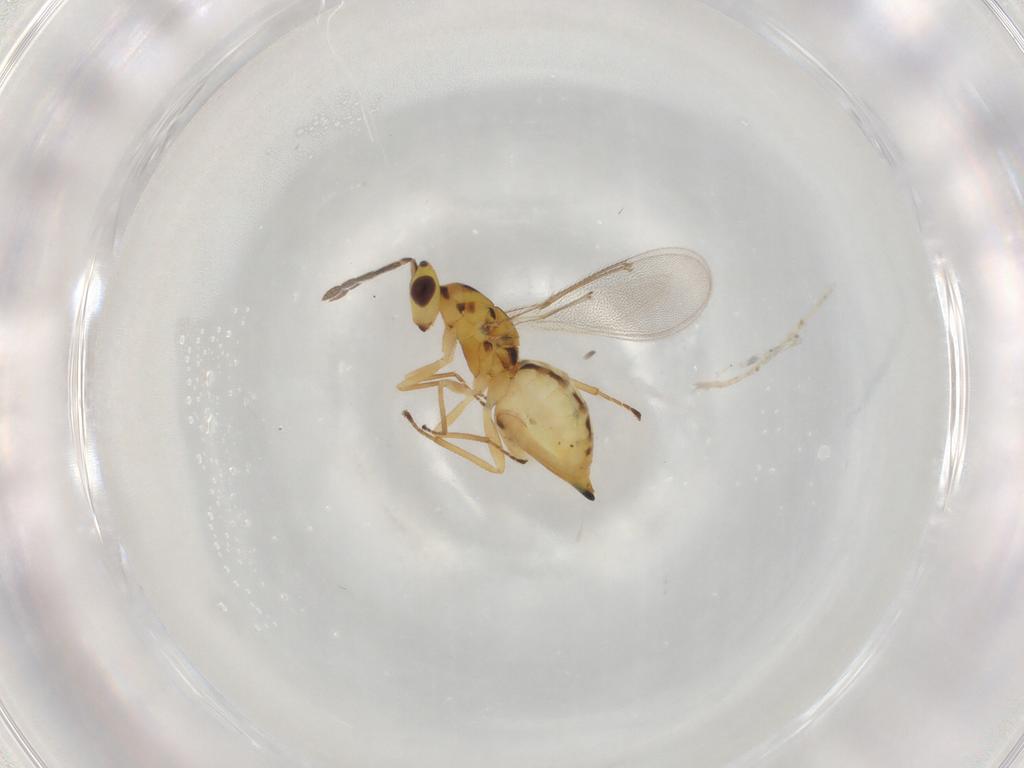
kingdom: Animalia
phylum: Arthropoda
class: Insecta
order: Hymenoptera
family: Eulophidae
